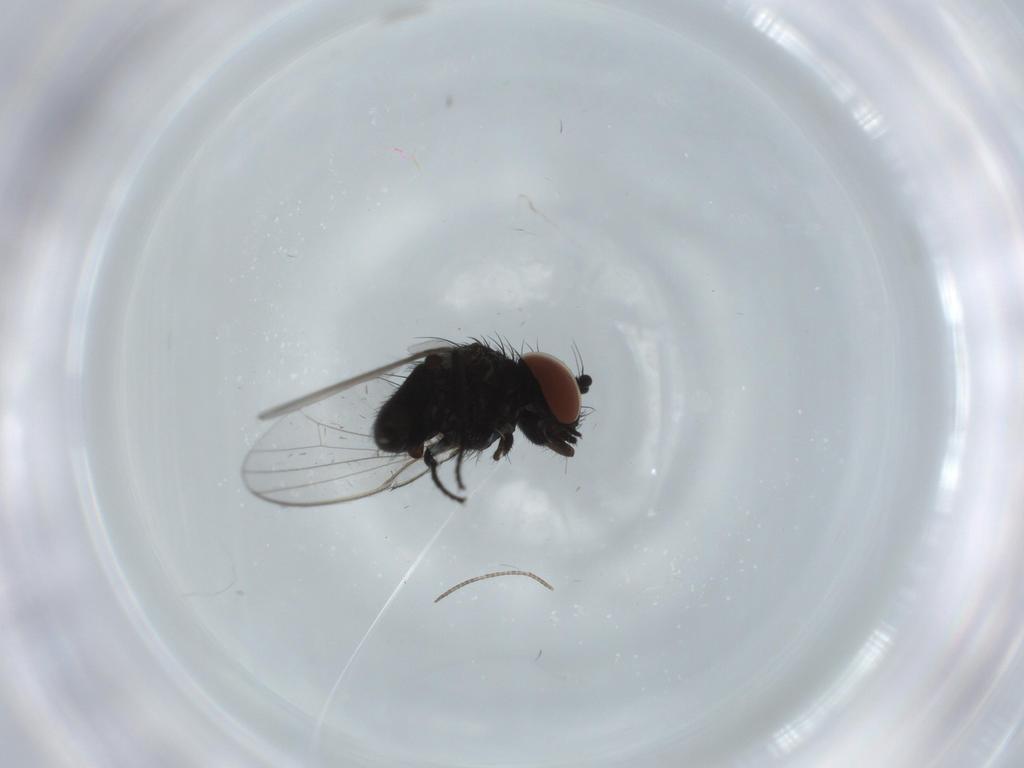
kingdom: Animalia
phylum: Arthropoda
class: Insecta
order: Diptera
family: Milichiidae
